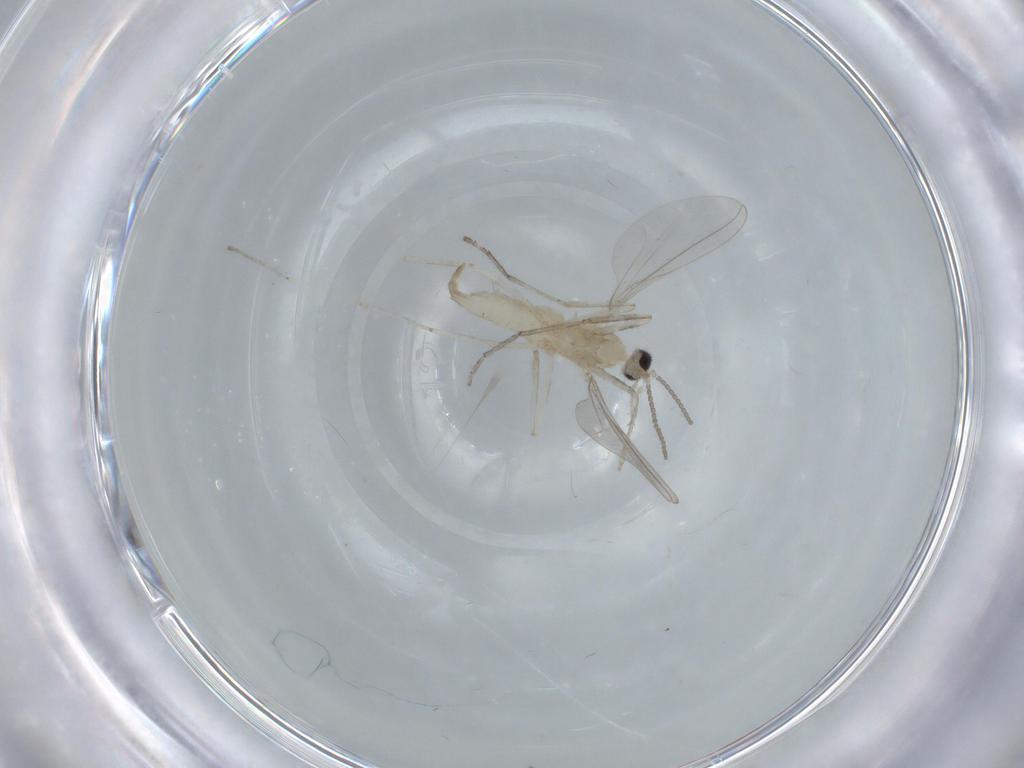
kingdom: Animalia
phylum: Arthropoda
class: Insecta
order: Diptera
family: Cecidomyiidae
